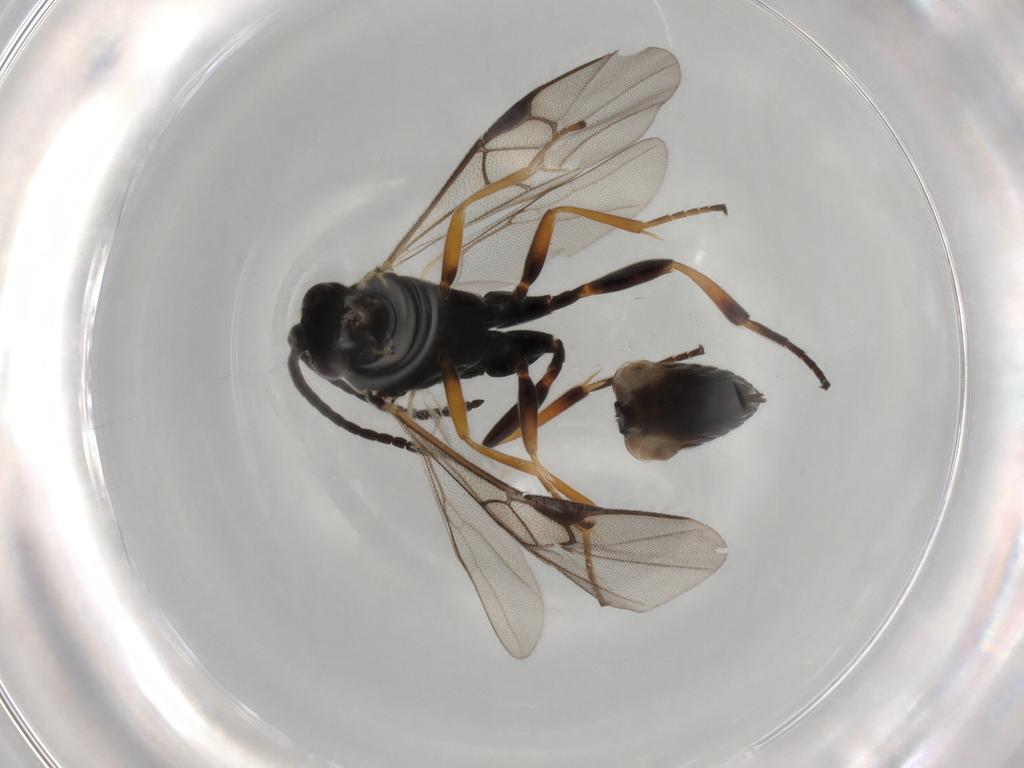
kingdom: Animalia
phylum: Arthropoda
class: Insecta
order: Hymenoptera
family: Braconidae
